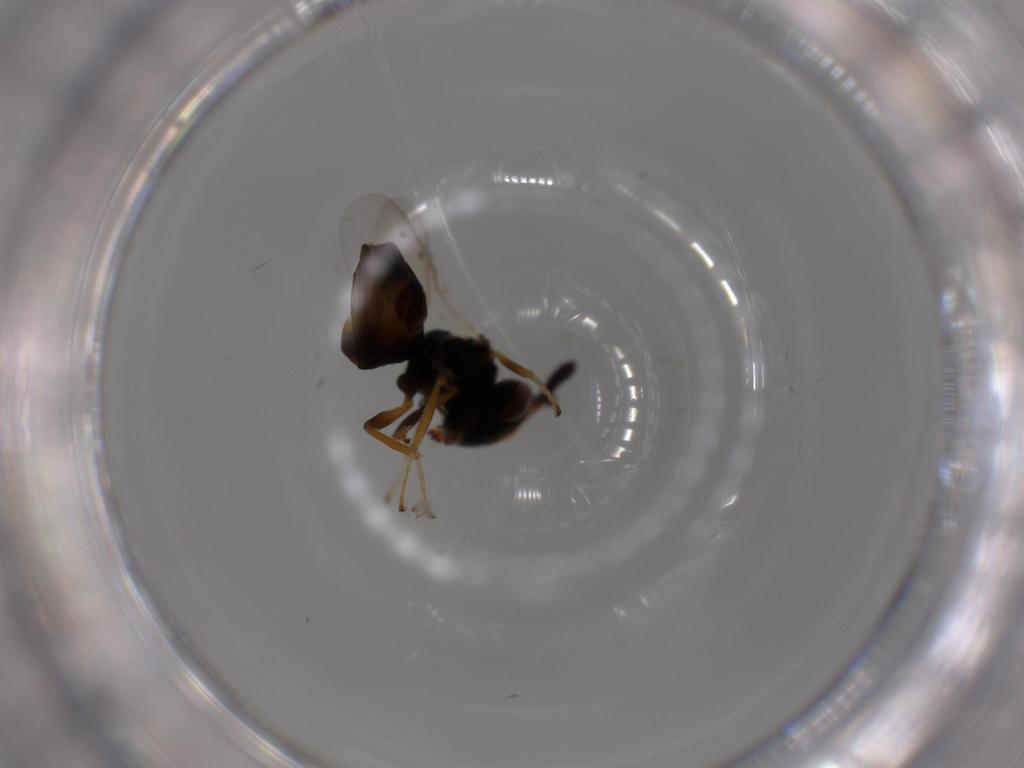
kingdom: Animalia
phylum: Arthropoda
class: Insecta
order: Hymenoptera
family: Agaonidae
